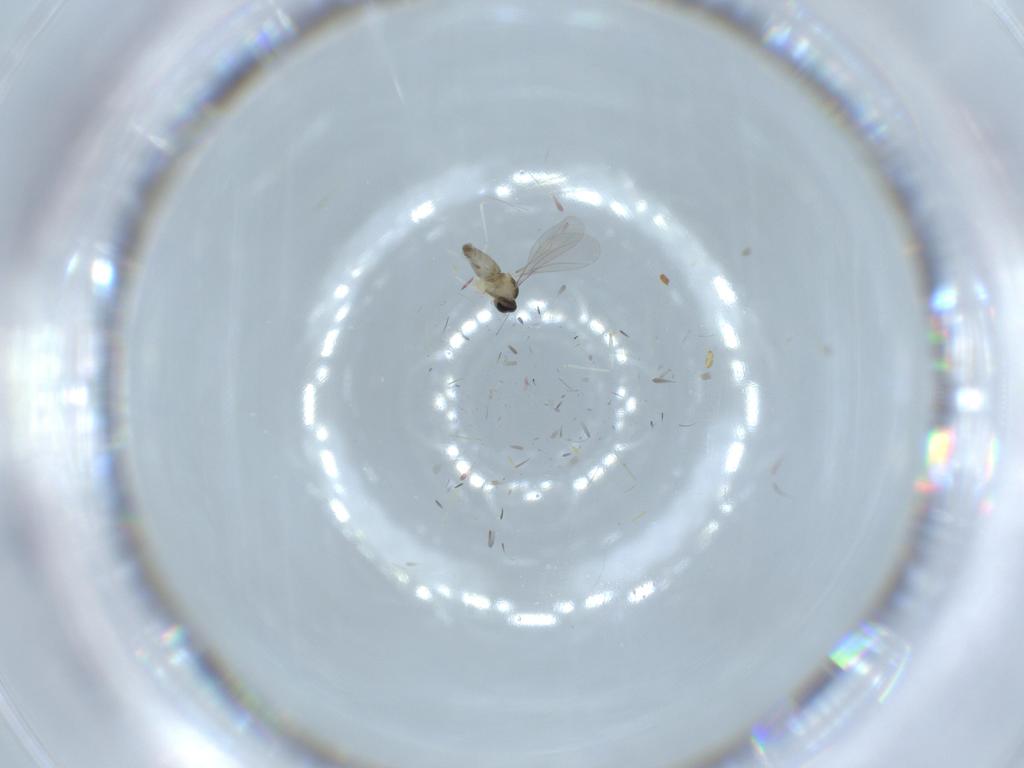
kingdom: Animalia
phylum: Arthropoda
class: Insecta
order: Diptera
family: Cecidomyiidae
